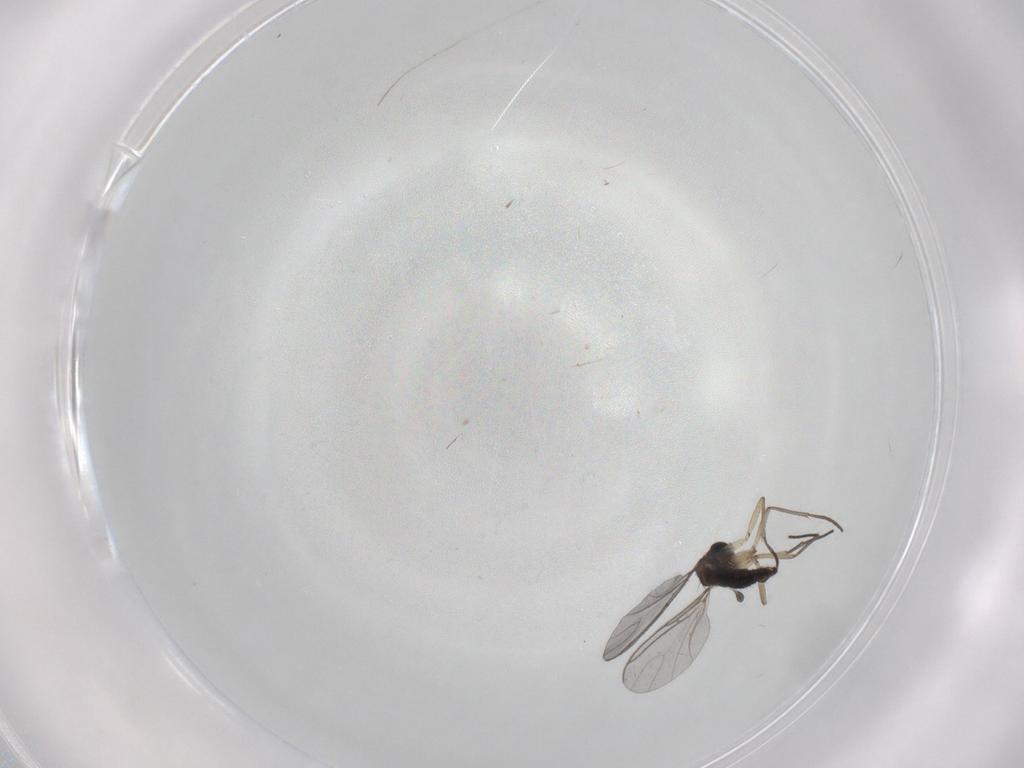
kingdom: Animalia
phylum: Arthropoda
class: Insecta
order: Diptera
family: Sciaridae
